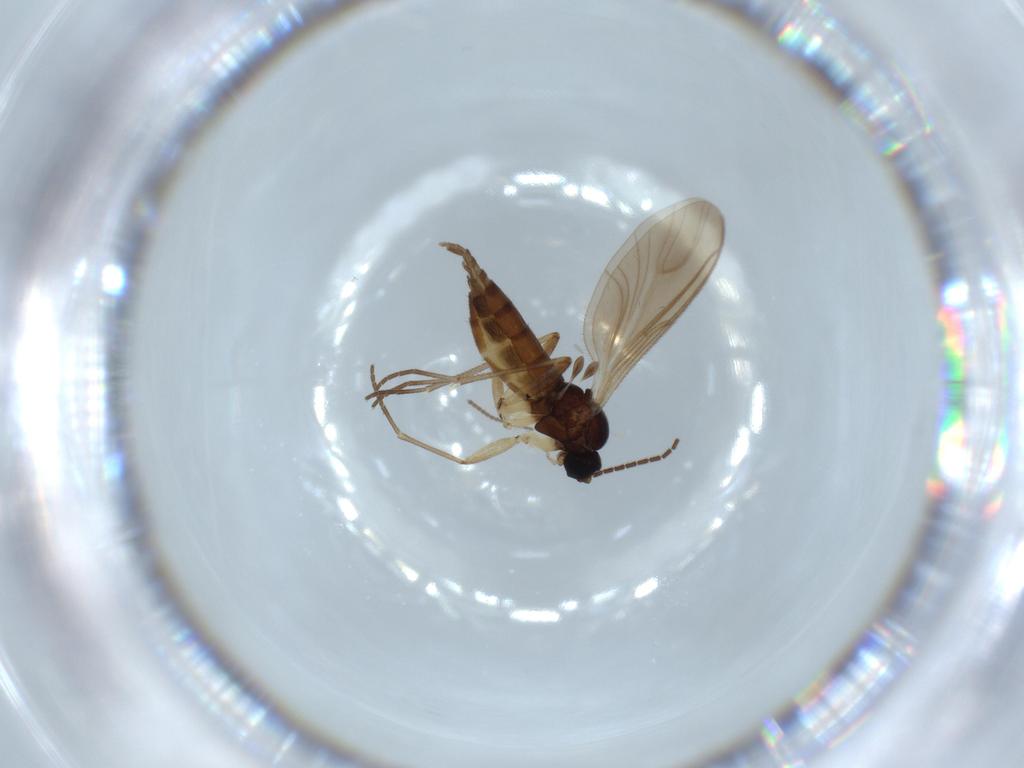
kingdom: Animalia
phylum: Arthropoda
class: Insecta
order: Diptera
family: Sciaridae
